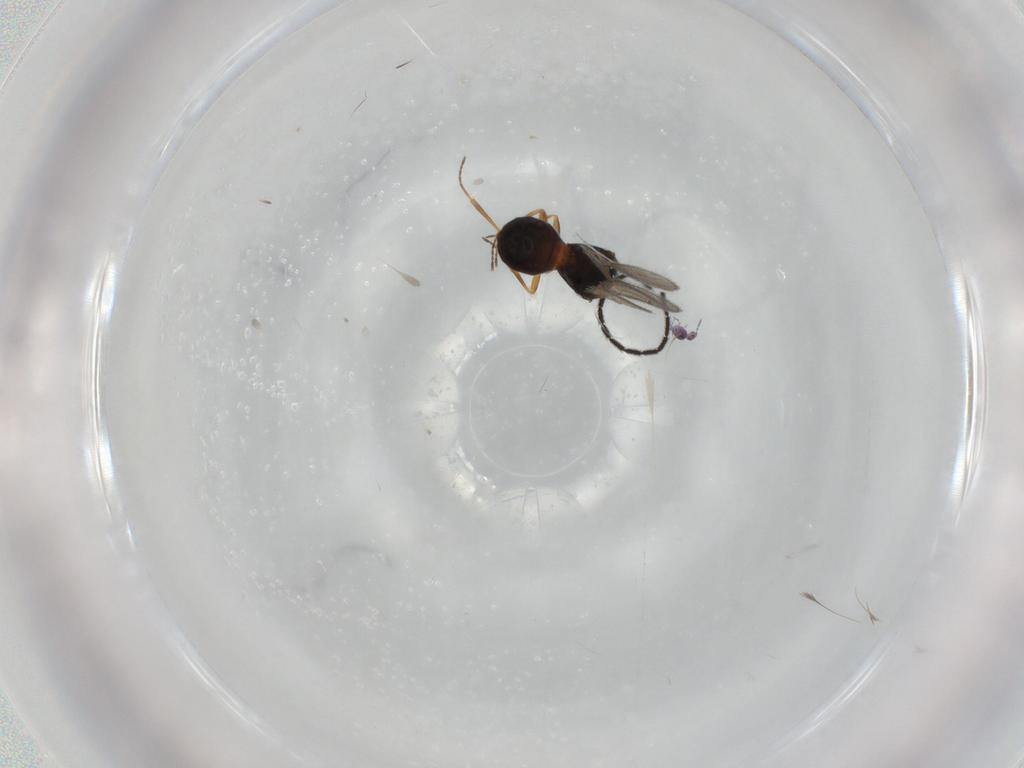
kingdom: Animalia
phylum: Arthropoda
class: Collembola
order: Symphypleona
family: Sminthurididae
